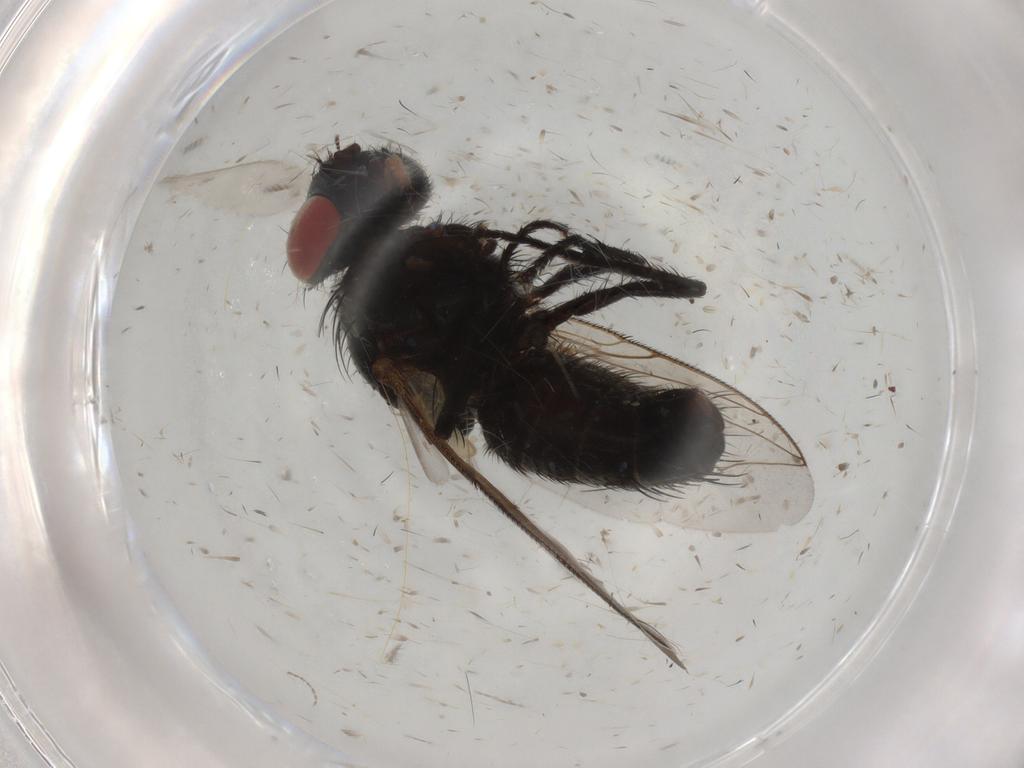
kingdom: Animalia
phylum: Arthropoda
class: Insecta
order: Diptera
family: Sarcophagidae
